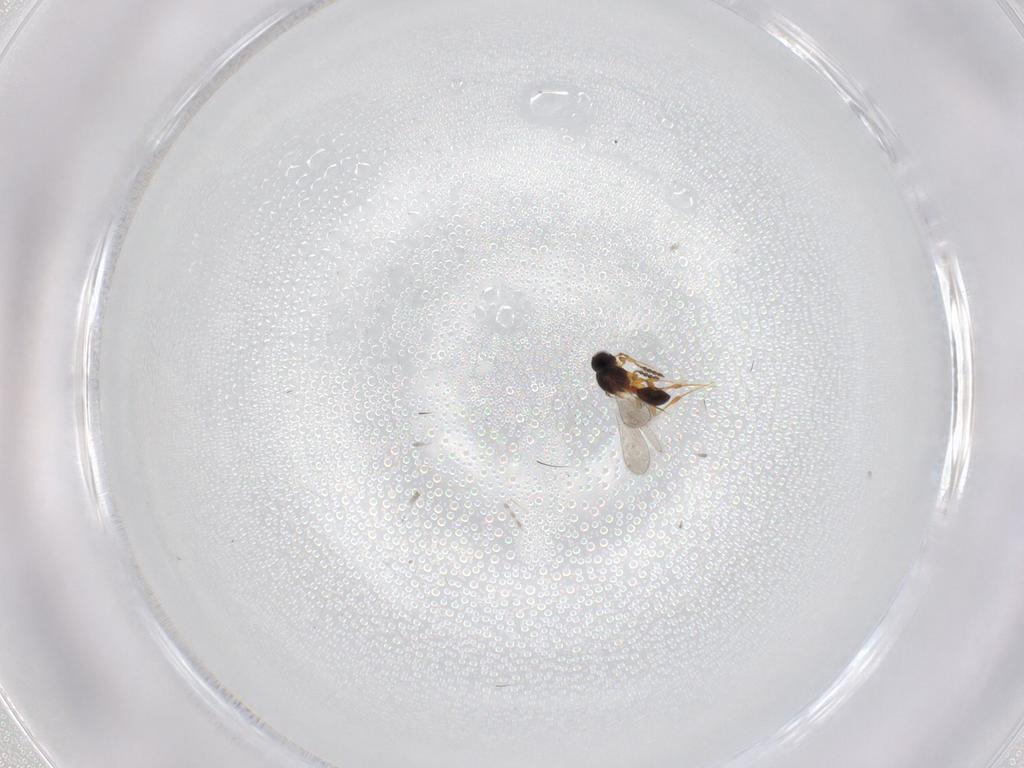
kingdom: Animalia
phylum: Arthropoda
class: Insecta
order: Hymenoptera
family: Platygastridae
